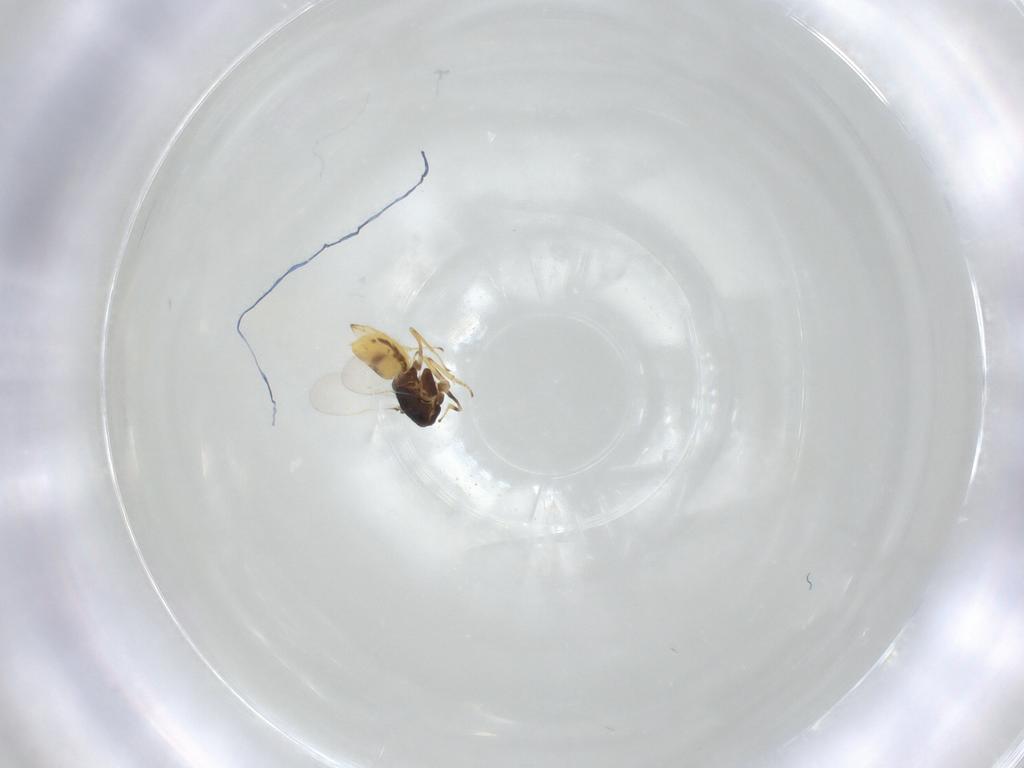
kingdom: Animalia
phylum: Arthropoda
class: Insecta
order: Hymenoptera
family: Encyrtidae
